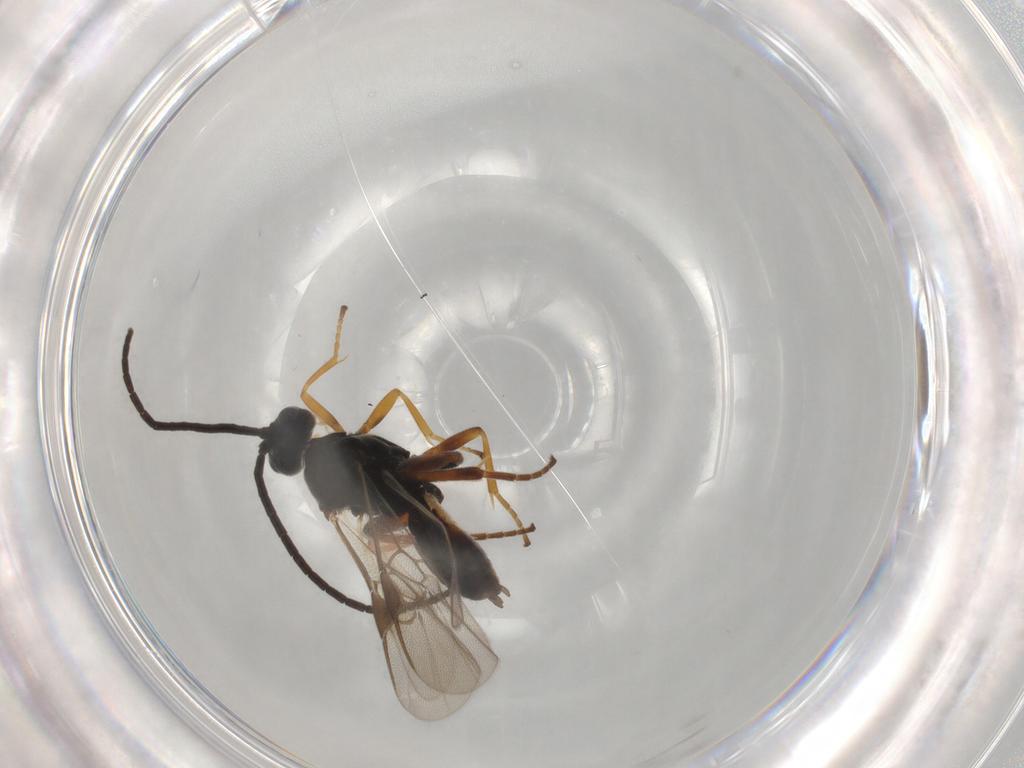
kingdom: Animalia
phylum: Arthropoda
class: Insecta
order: Hymenoptera
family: Braconidae
